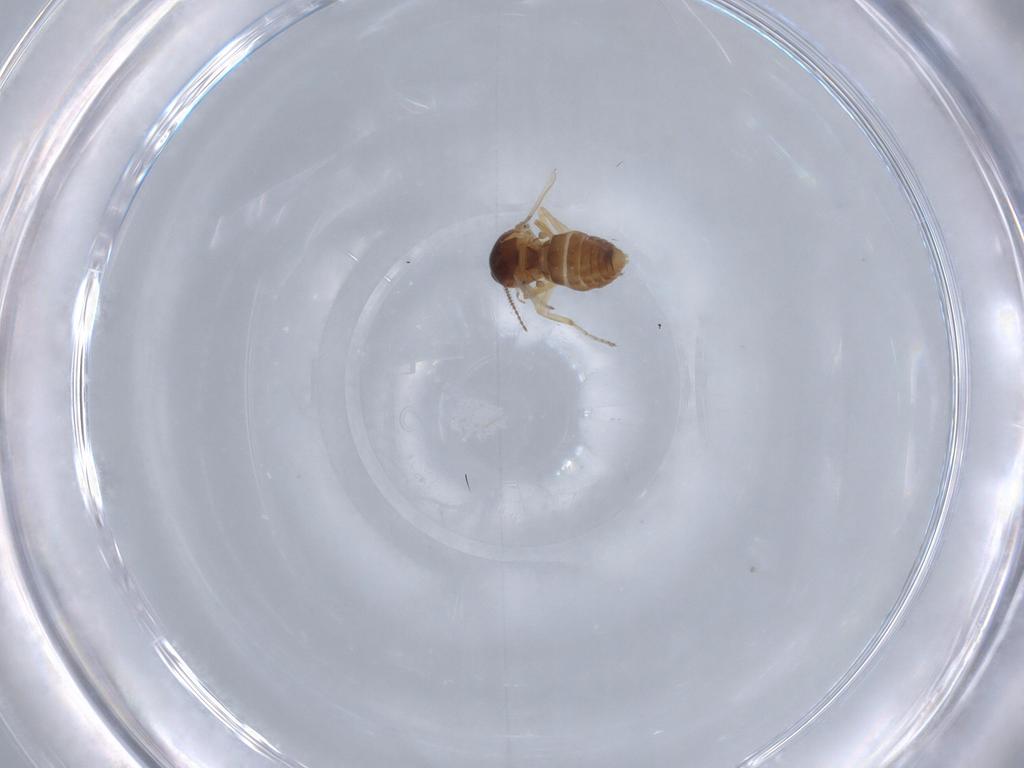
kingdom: Animalia
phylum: Arthropoda
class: Insecta
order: Diptera
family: Ceratopogonidae
